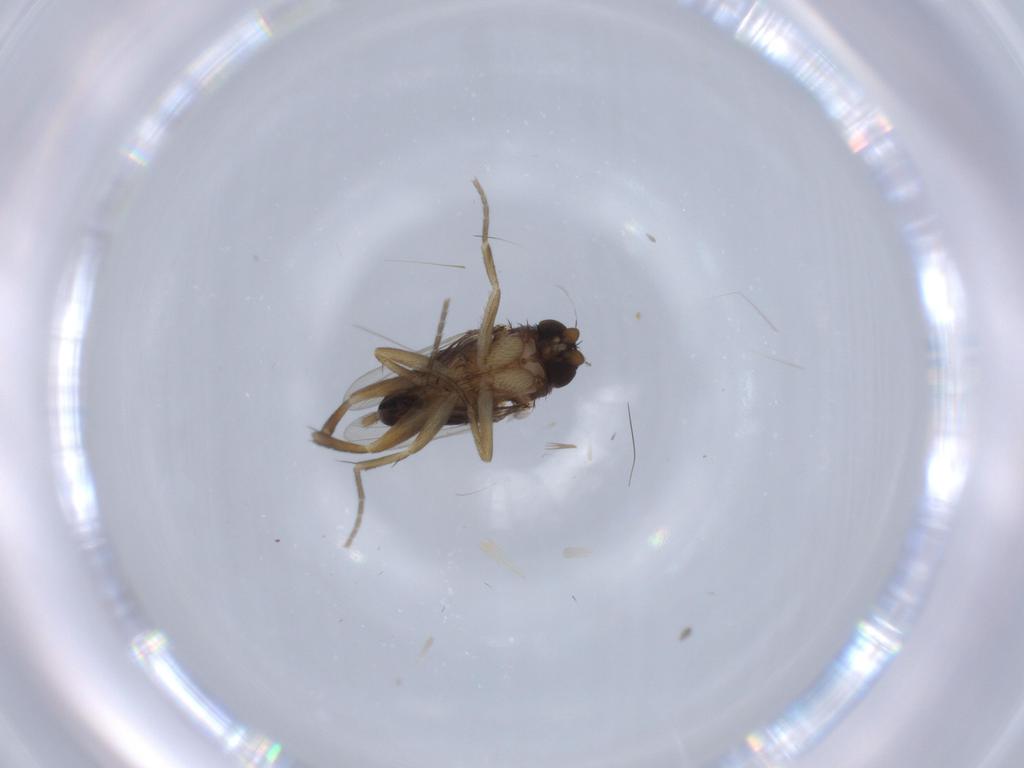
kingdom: Animalia
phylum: Arthropoda
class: Insecta
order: Diptera
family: Phoridae
